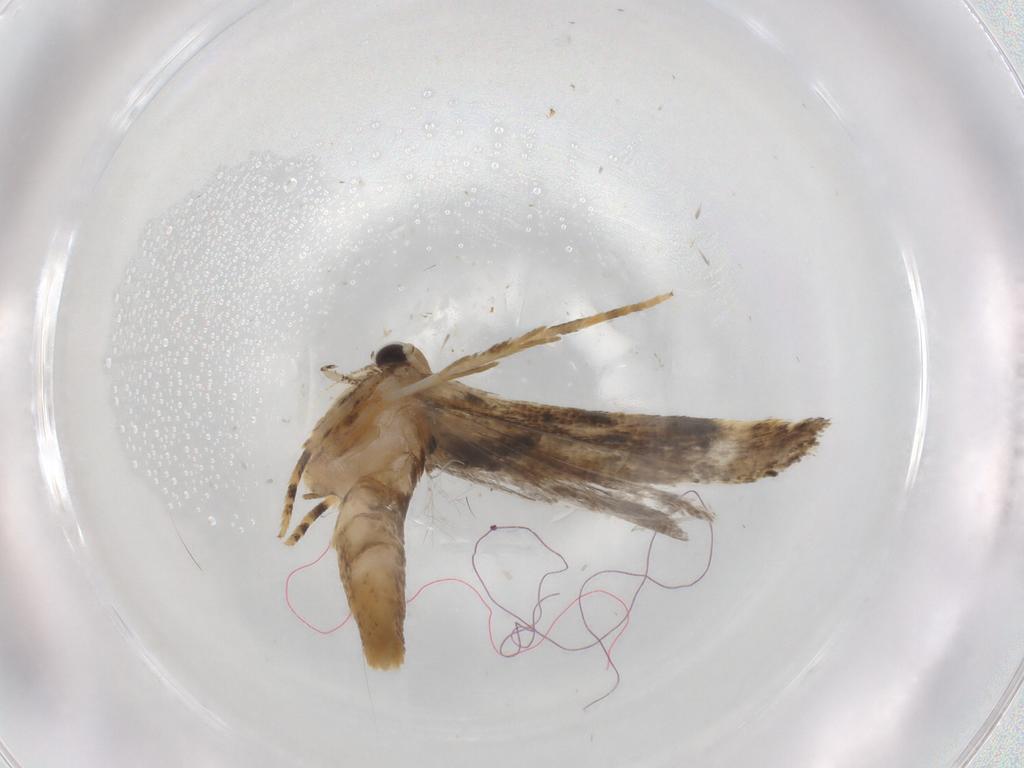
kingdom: Animalia
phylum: Arthropoda
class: Insecta
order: Lepidoptera
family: Gelechiidae
